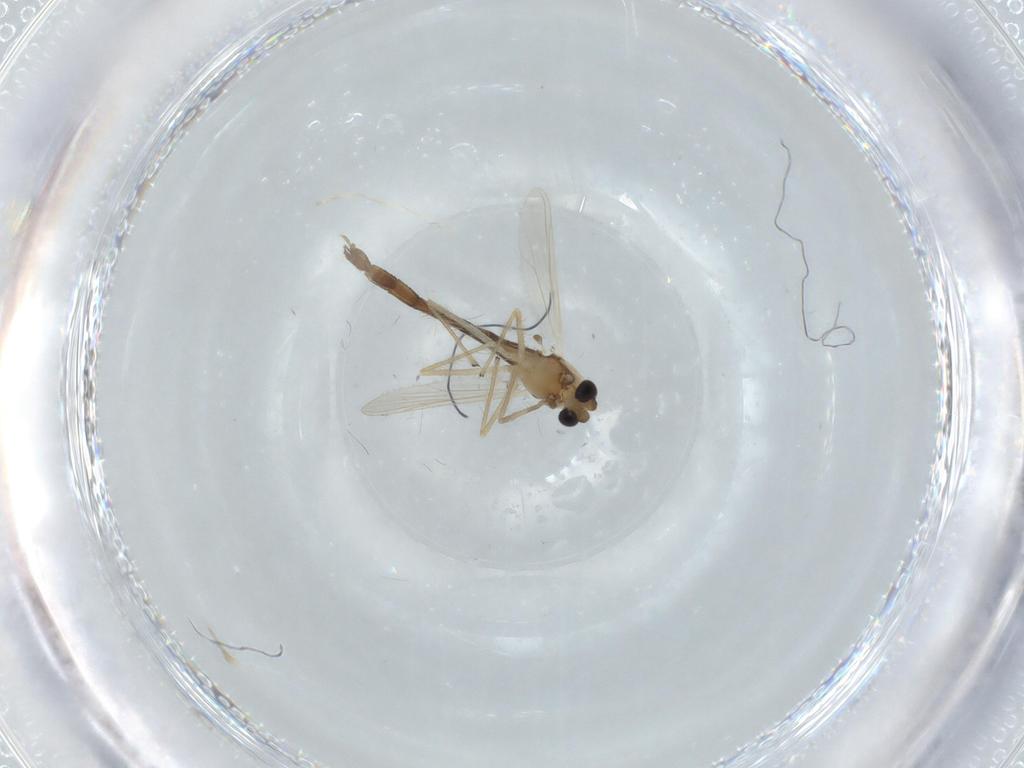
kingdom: Animalia
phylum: Arthropoda
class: Insecta
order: Diptera
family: Chironomidae
